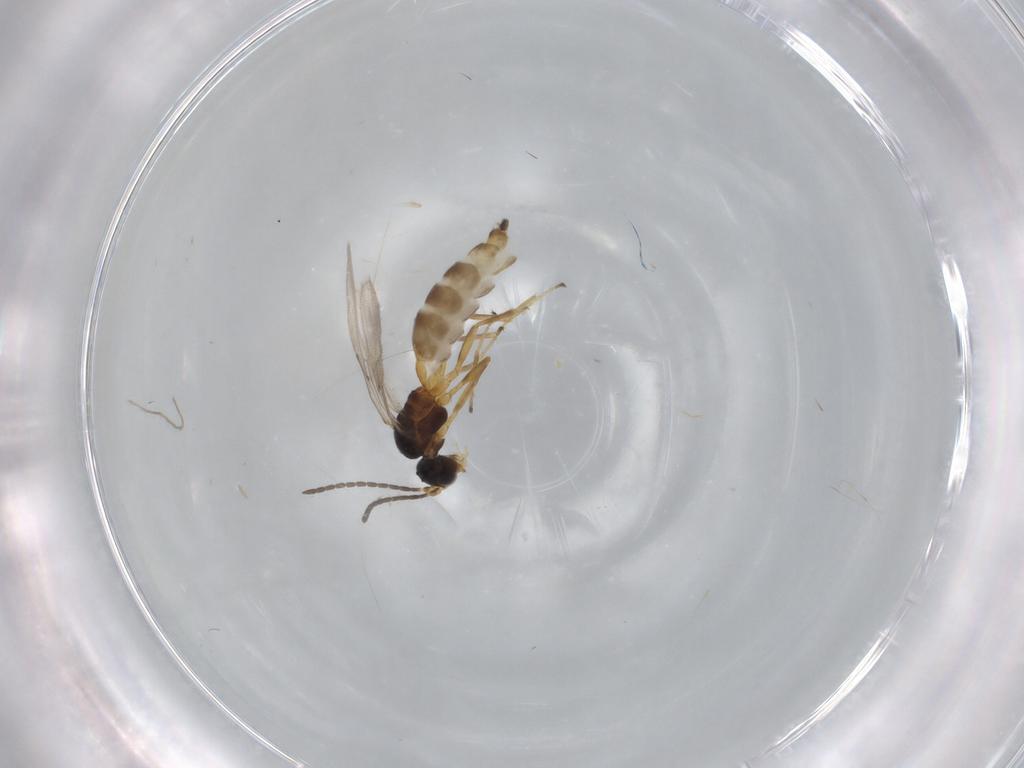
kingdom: Animalia
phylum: Arthropoda
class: Insecta
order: Hymenoptera
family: Braconidae
